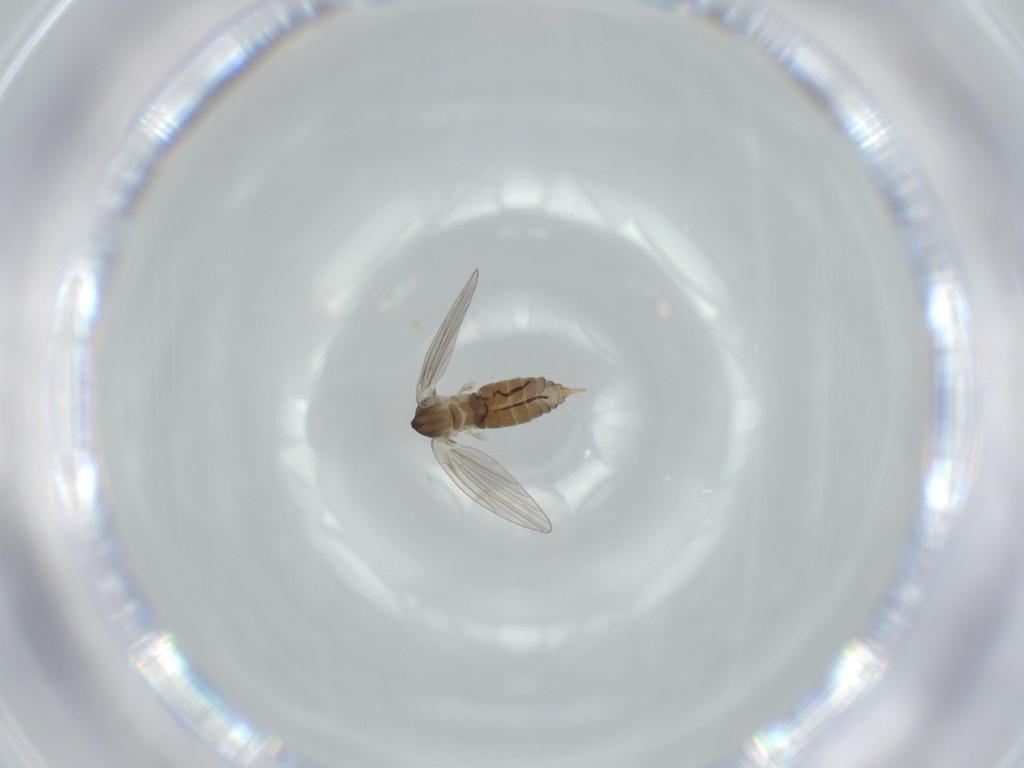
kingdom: Animalia
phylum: Arthropoda
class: Insecta
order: Diptera
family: Psychodidae
